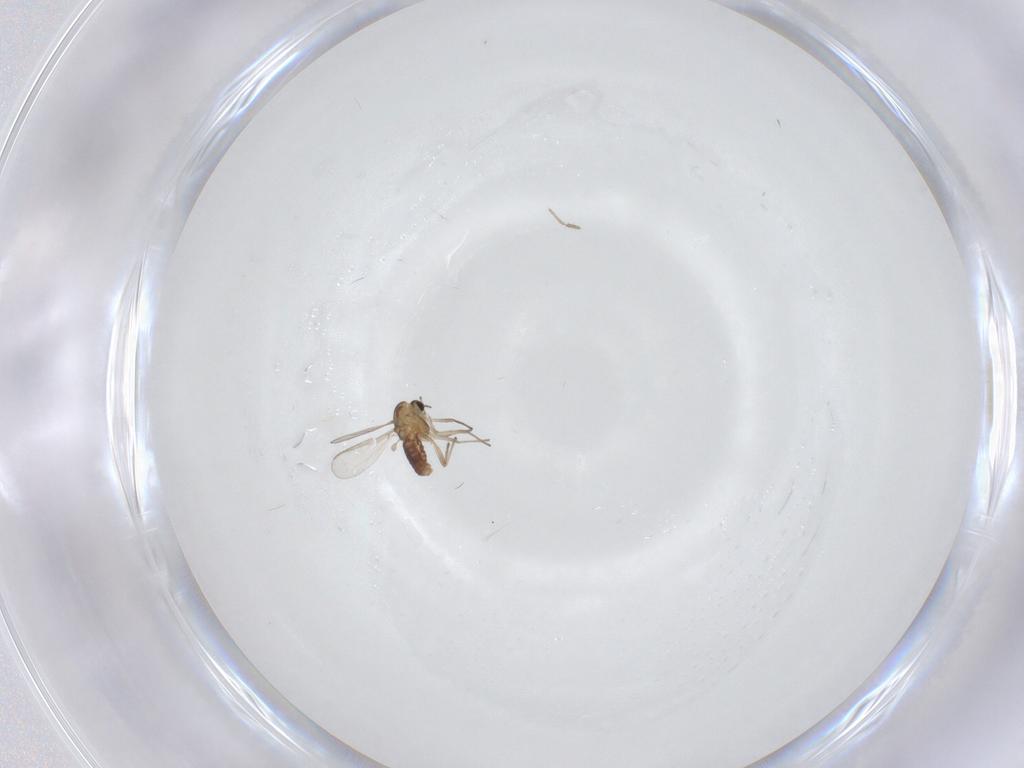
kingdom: Animalia
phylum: Arthropoda
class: Insecta
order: Diptera
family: Chironomidae
